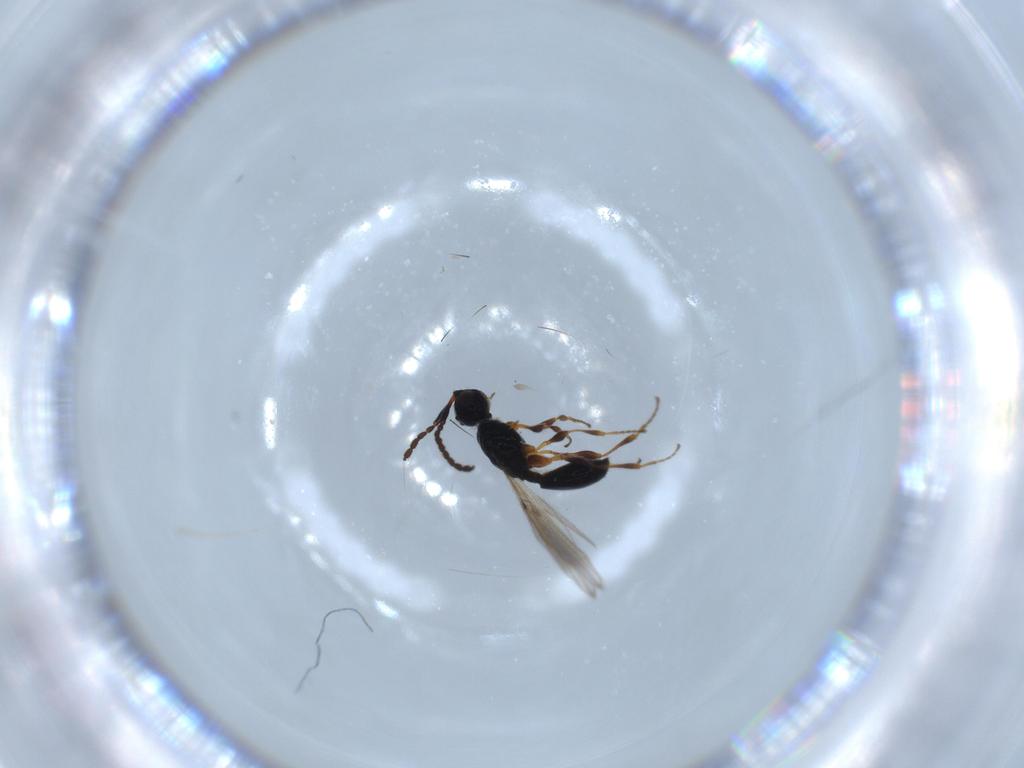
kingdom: Animalia
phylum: Arthropoda
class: Insecta
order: Hymenoptera
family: Diapriidae
